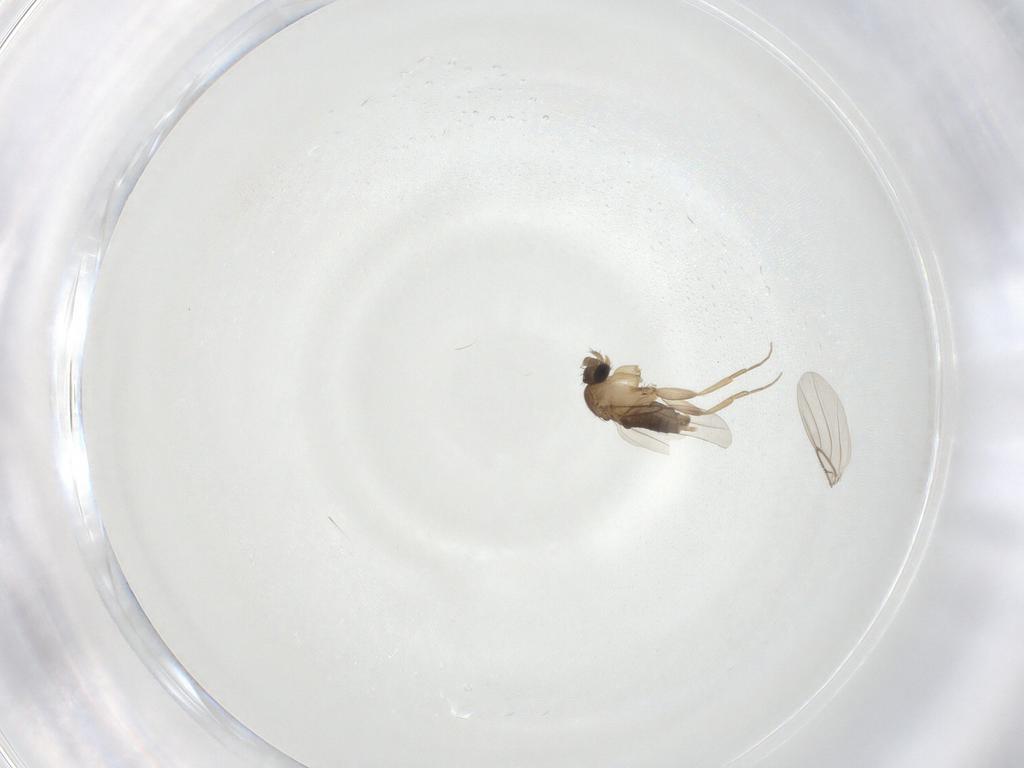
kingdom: Animalia
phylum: Arthropoda
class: Insecta
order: Diptera
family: Phoridae
